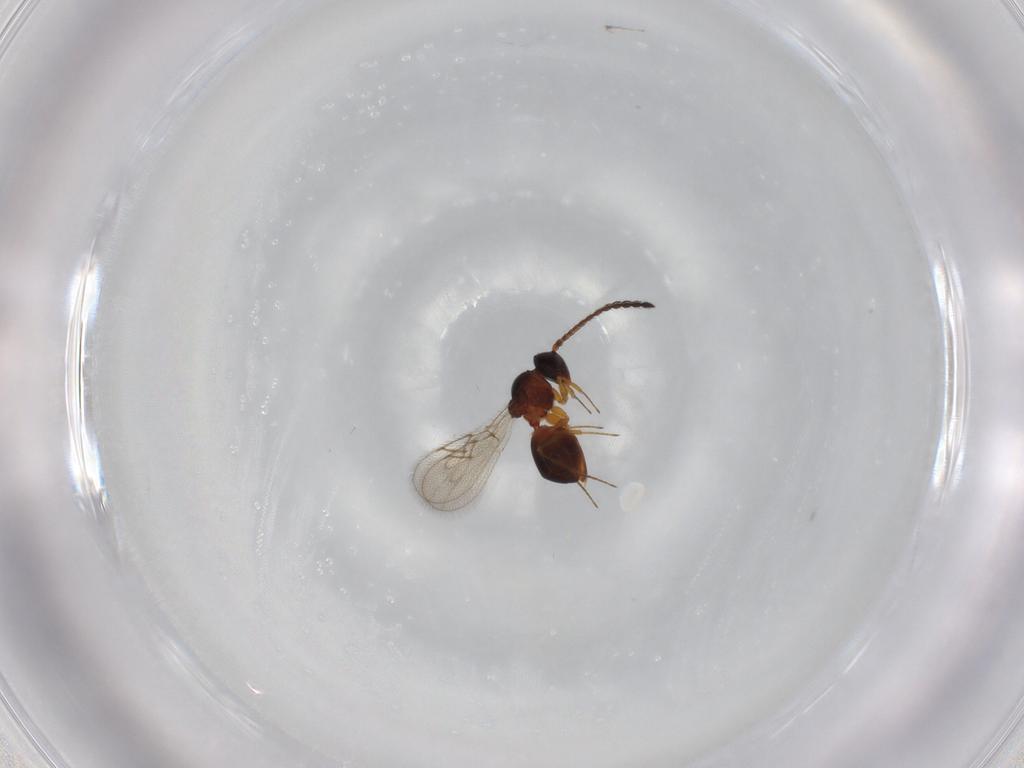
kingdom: Animalia
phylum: Arthropoda
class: Insecta
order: Hymenoptera
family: Figitidae
